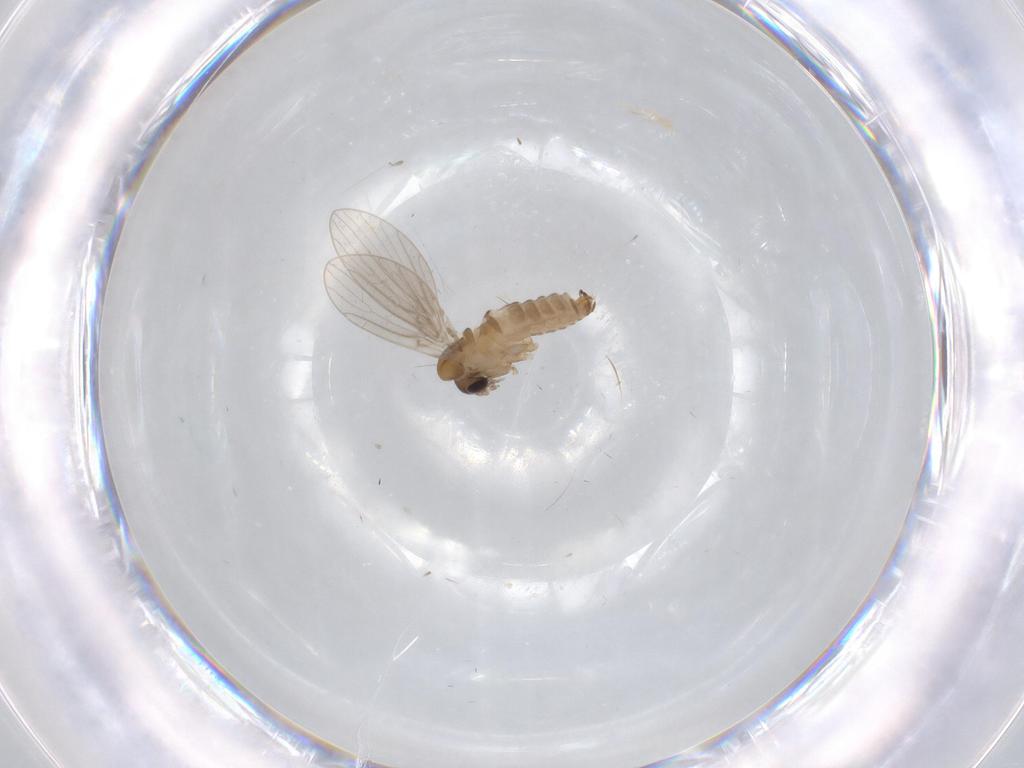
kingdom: Animalia
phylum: Arthropoda
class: Insecta
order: Diptera
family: Psychodidae
